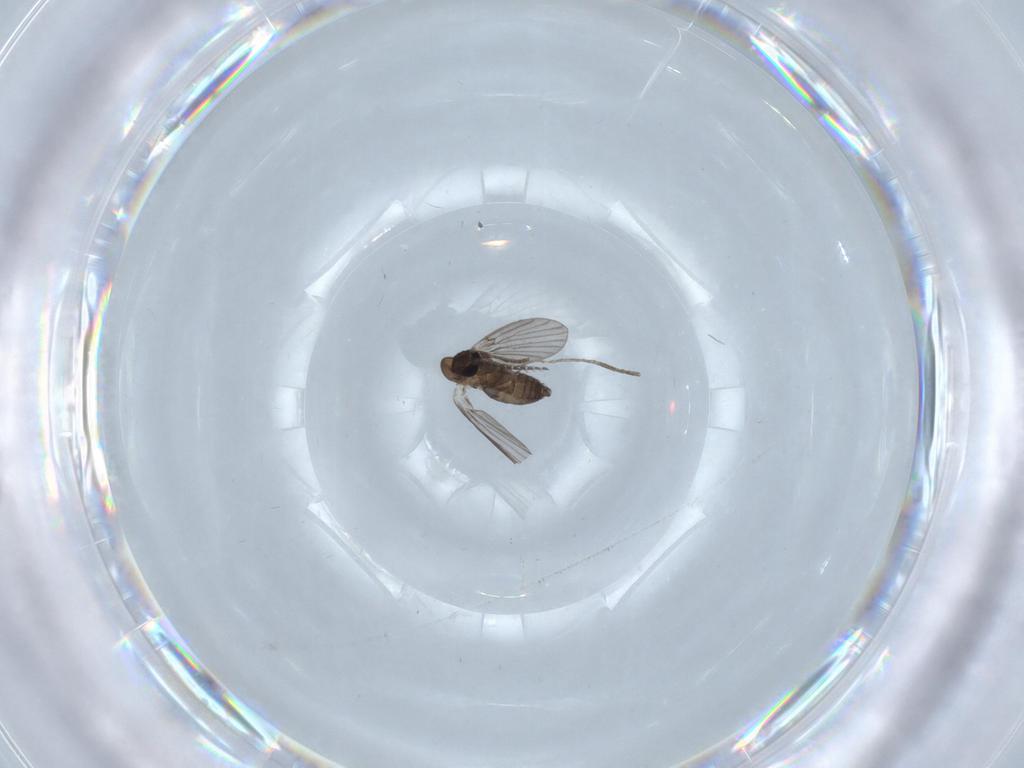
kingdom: Animalia
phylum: Arthropoda
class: Insecta
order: Diptera
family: Psychodidae
